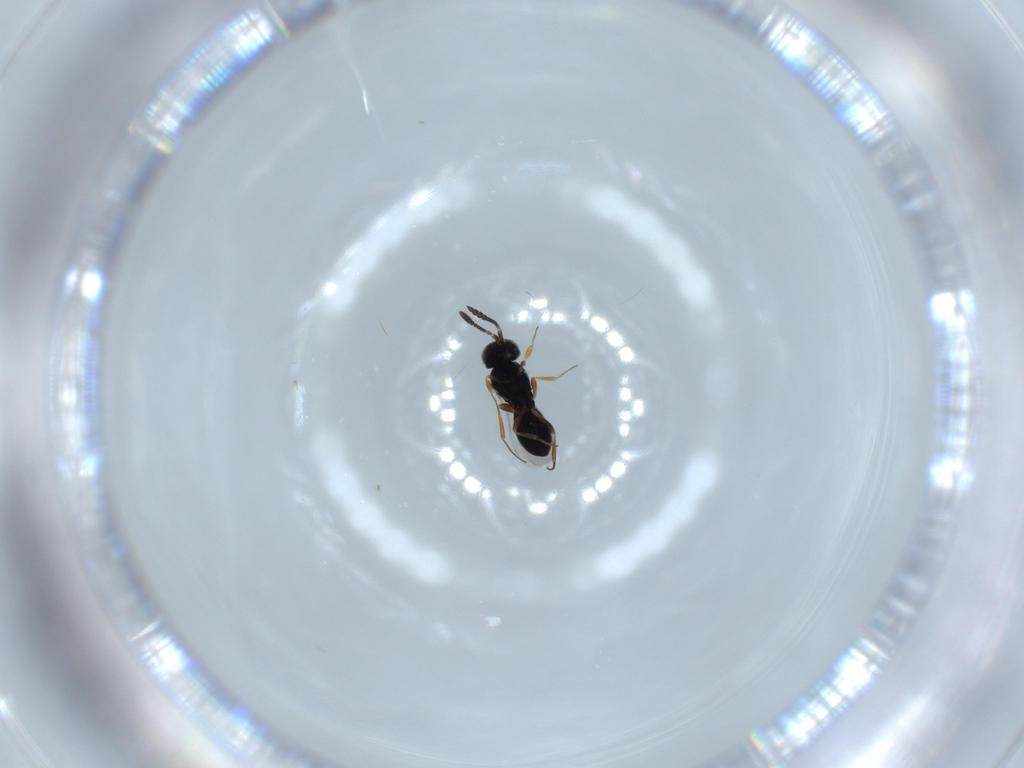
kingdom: Animalia
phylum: Arthropoda
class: Insecta
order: Hymenoptera
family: Formicidae
